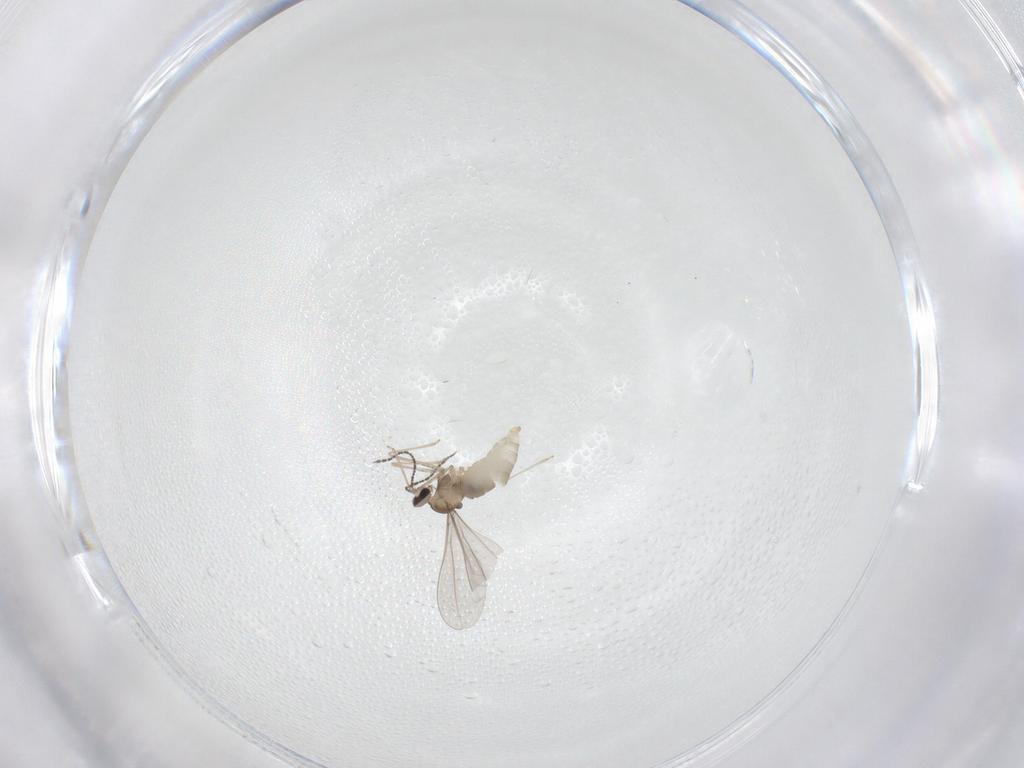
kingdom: Animalia
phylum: Arthropoda
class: Insecta
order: Diptera
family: Cecidomyiidae
